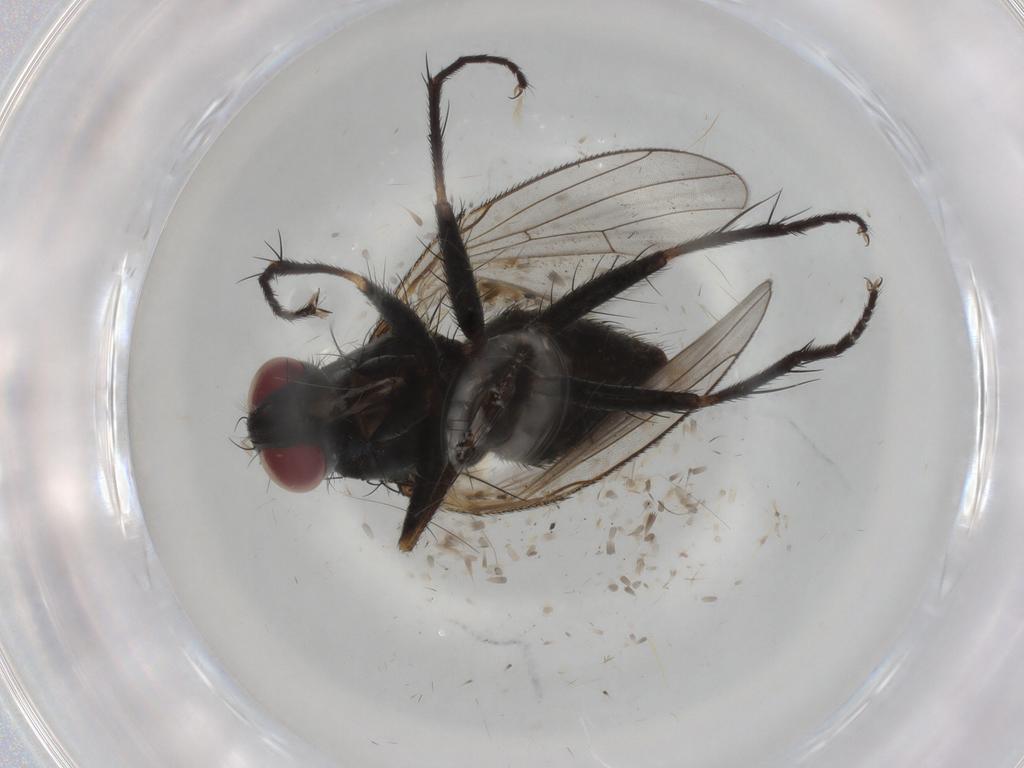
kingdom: Animalia
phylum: Arthropoda
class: Insecta
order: Diptera
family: Muscidae
